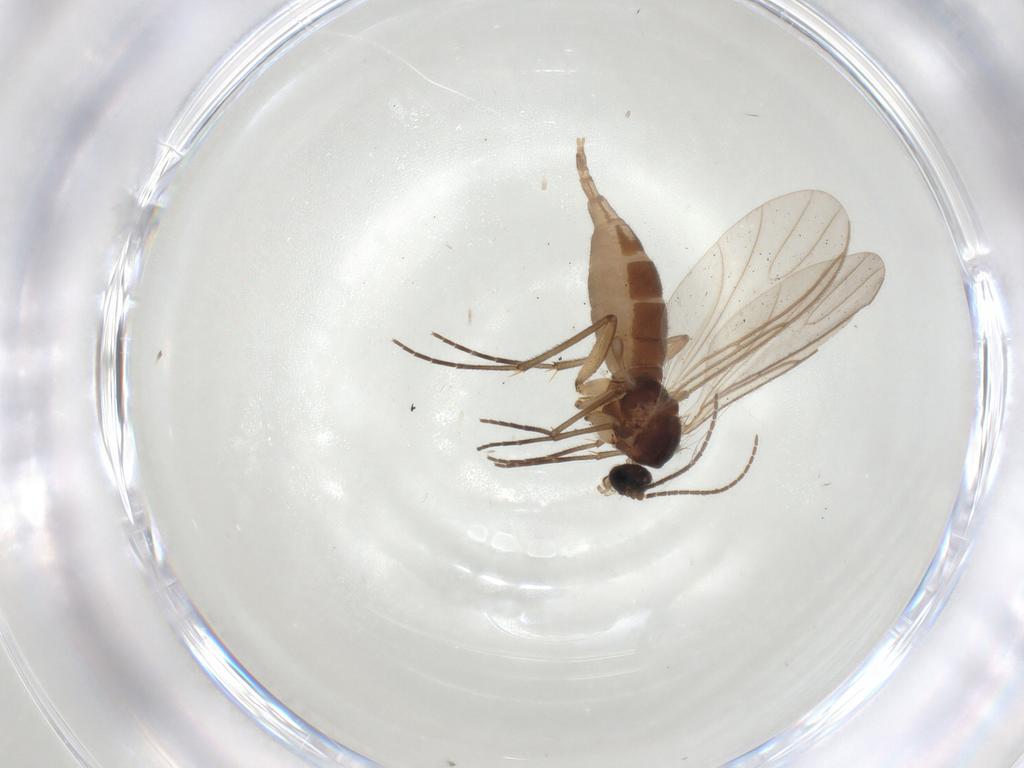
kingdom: Animalia
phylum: Arthropoda
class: Insecta
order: Diptera
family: Sciaridae
